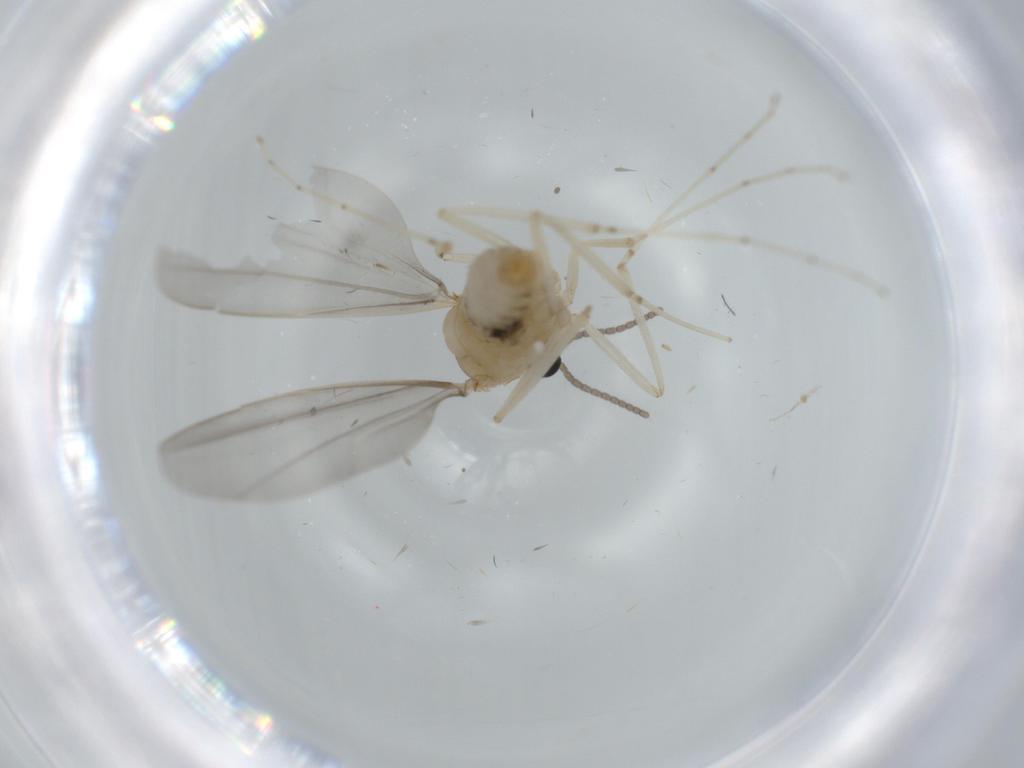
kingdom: Animalia
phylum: Arthropoda
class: Insecta
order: Diptera
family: Cecidomyiidae
